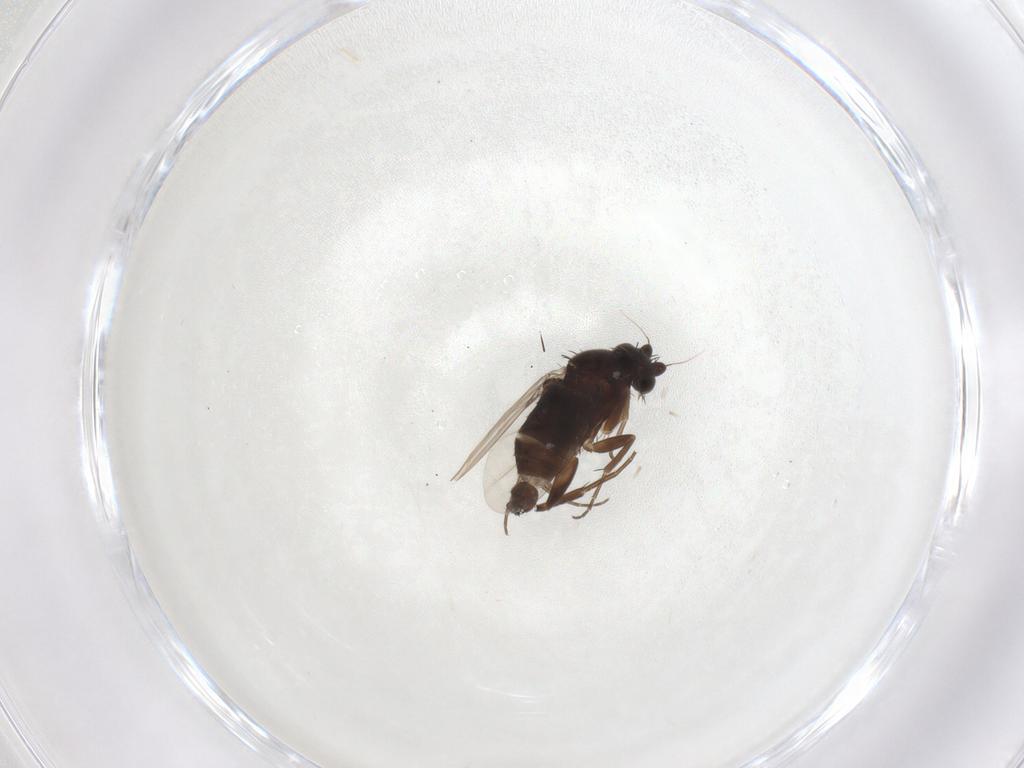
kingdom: Animalia
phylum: Arthropoda
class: Insecta
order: Diptera
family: Phoridae
